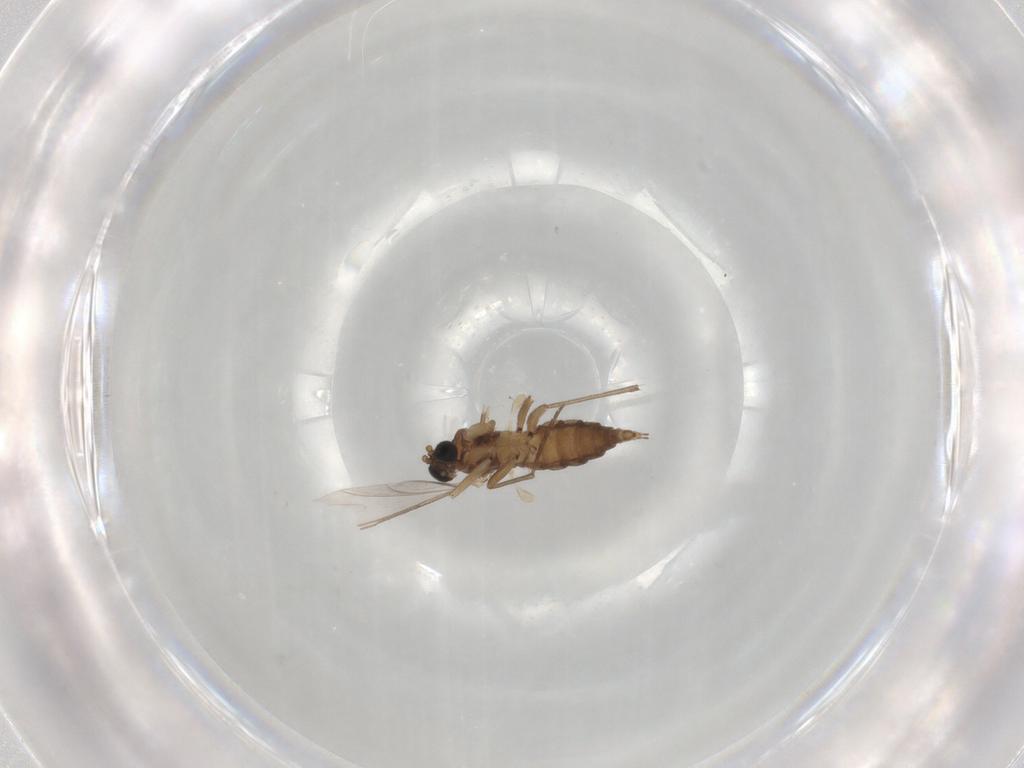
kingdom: Animalia
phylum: Arthropoda
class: Insecta
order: Diptera
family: Sciaridae
